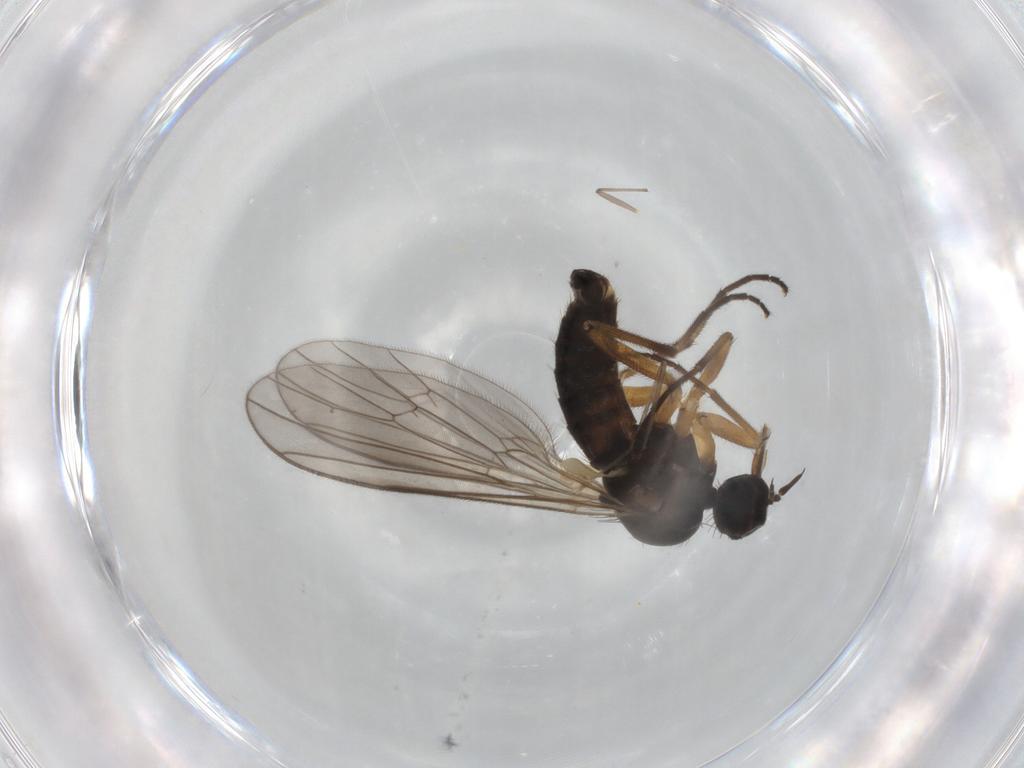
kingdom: Animalia
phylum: Arthropoda
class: Insecta
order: Diptera
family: Empididae
